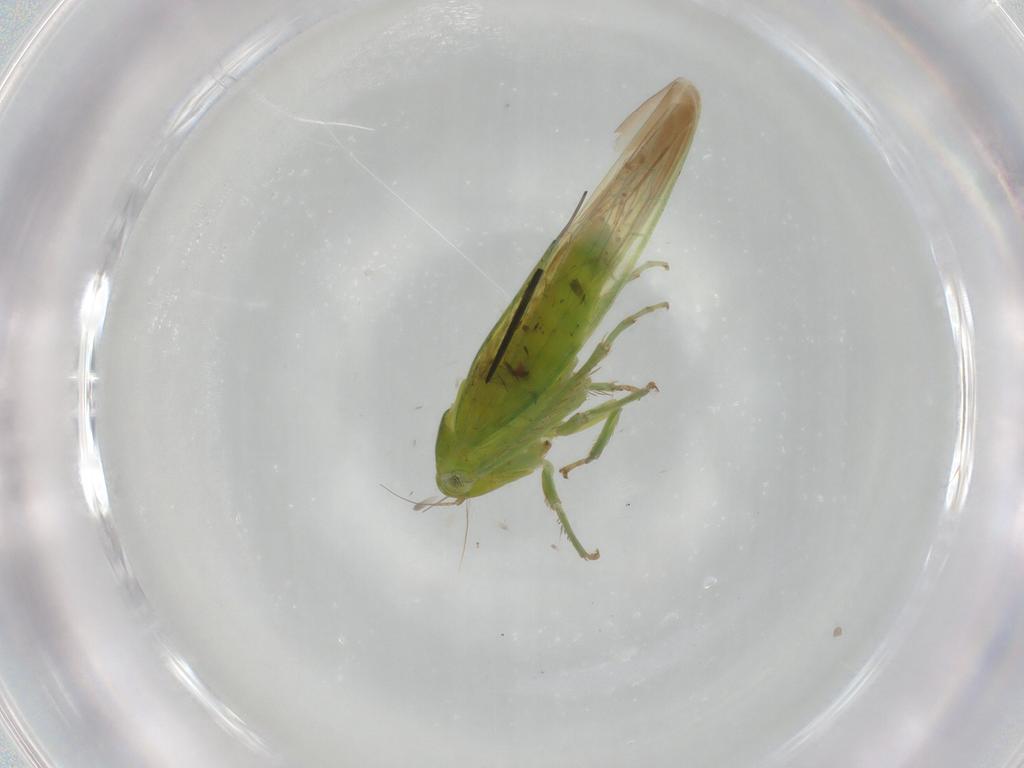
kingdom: Animalia
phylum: Arthropoda
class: Insecta
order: Hemiptera
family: Cicadellidae
